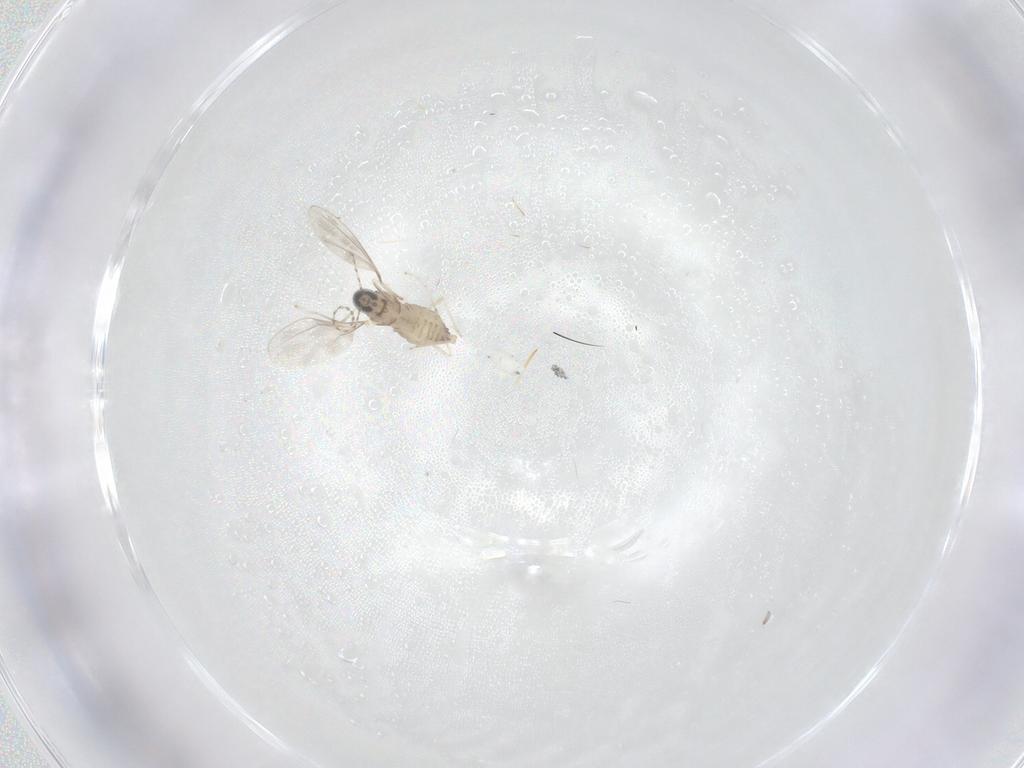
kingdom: Animalia
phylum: Arthropoda
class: Insecta
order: Diptera
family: Cecidomyiidae
